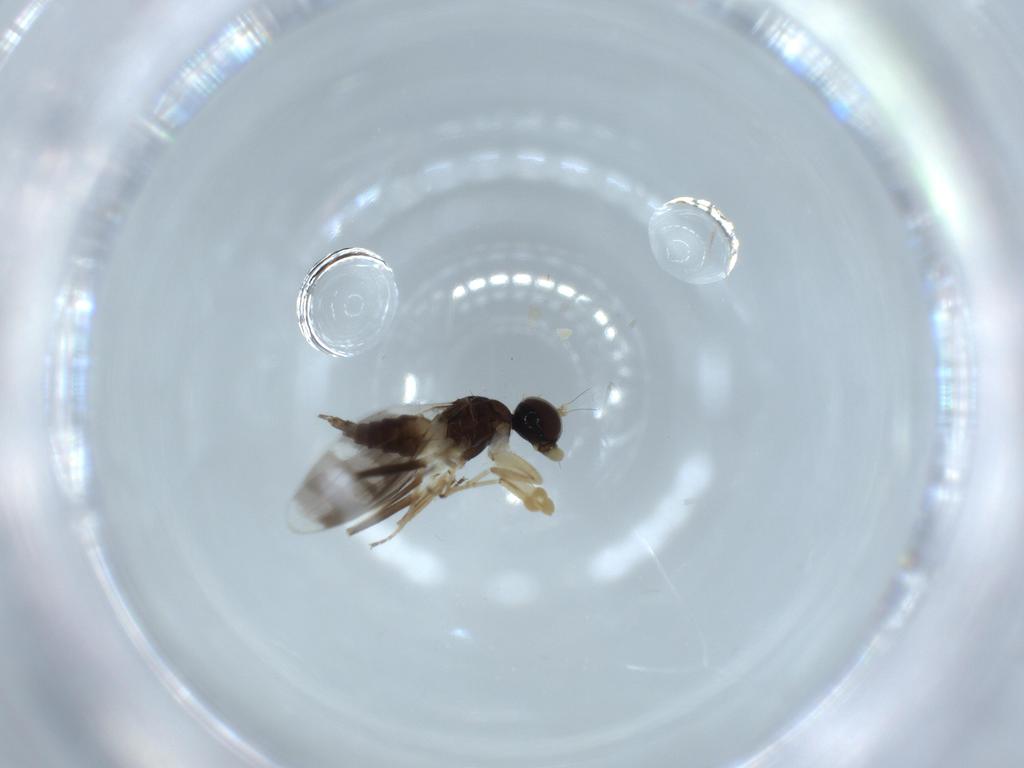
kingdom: Animalia
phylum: Arthropoda
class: Insecta
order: Diptera
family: Hybotidae
